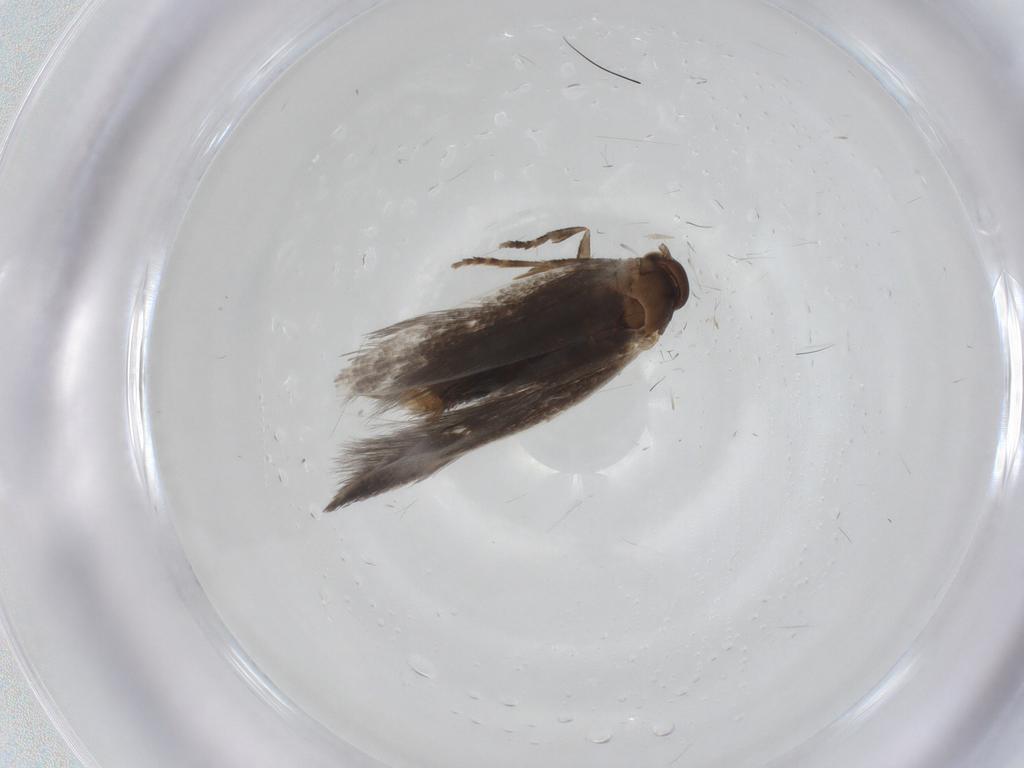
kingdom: Animalia
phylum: Arthropoda
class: Insecta
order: Lepidoptera
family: Elachistidae
